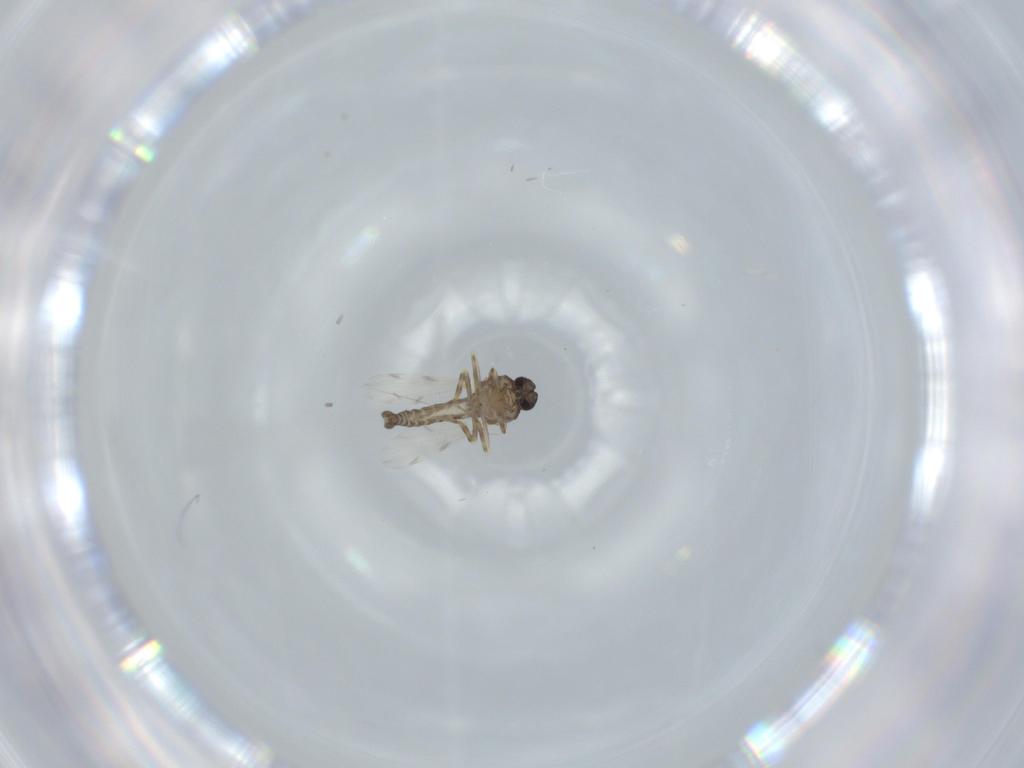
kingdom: Animalia
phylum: Arthropoda
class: Insecta
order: Diptera
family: Ceratopogonidae
